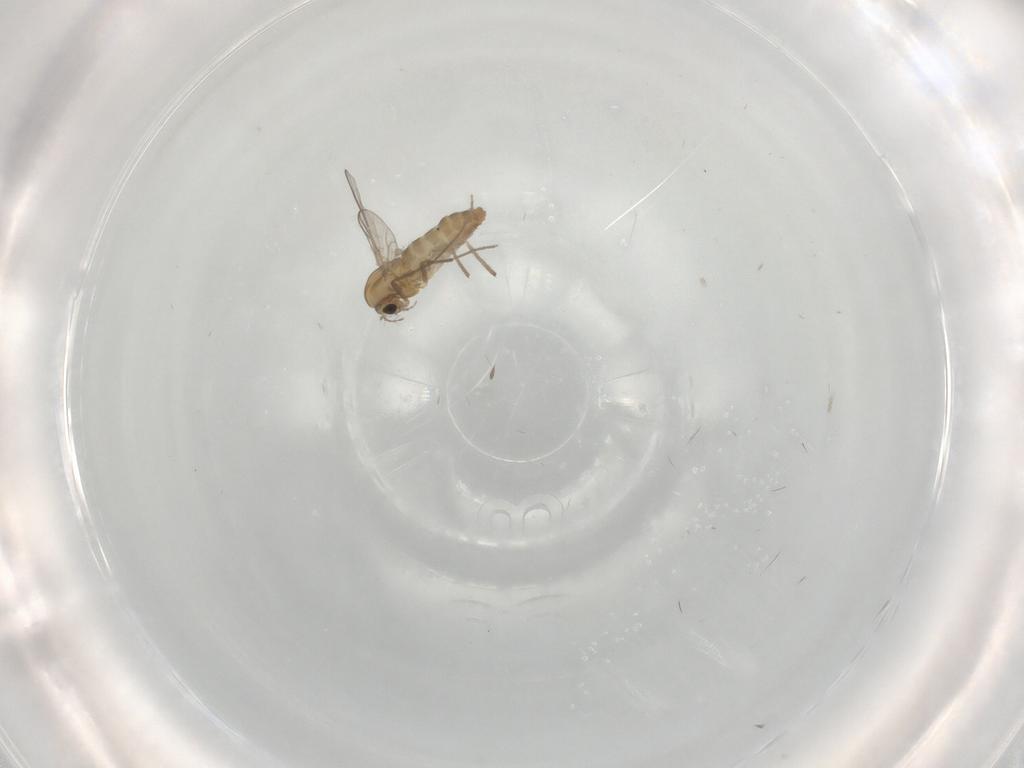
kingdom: Animalia
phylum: Arthropoda
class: Insecta
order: Diptera
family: Chironomidae
